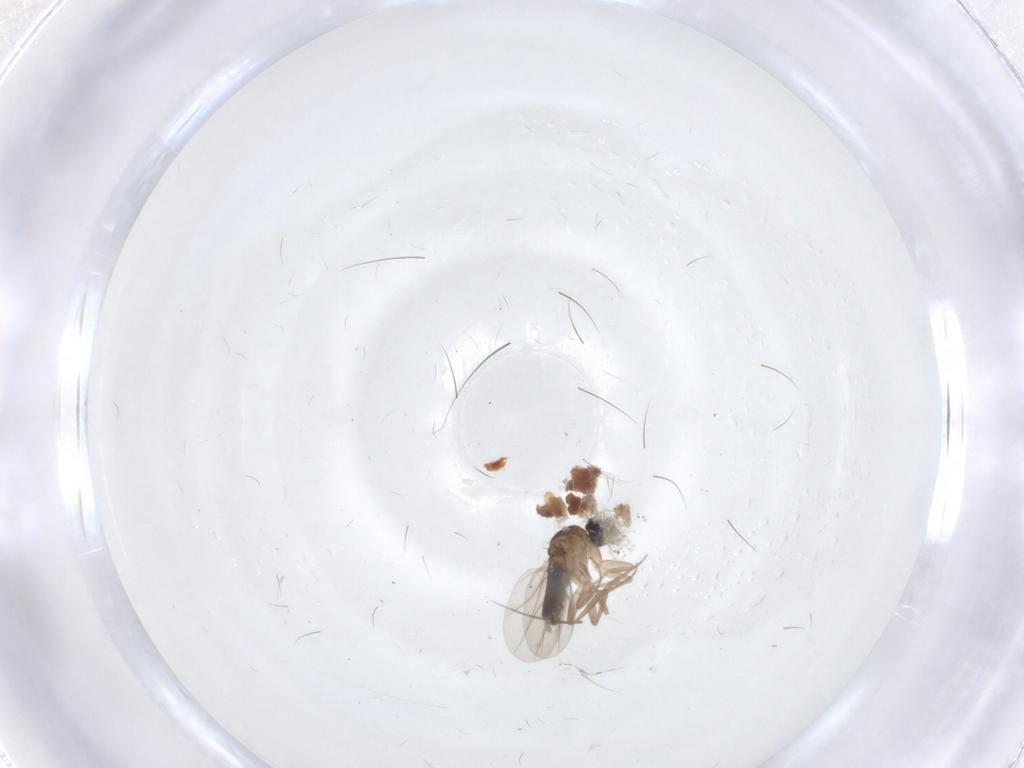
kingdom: Animalia
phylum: Arthropoda
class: Insecta
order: Diptera
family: Phoridae
